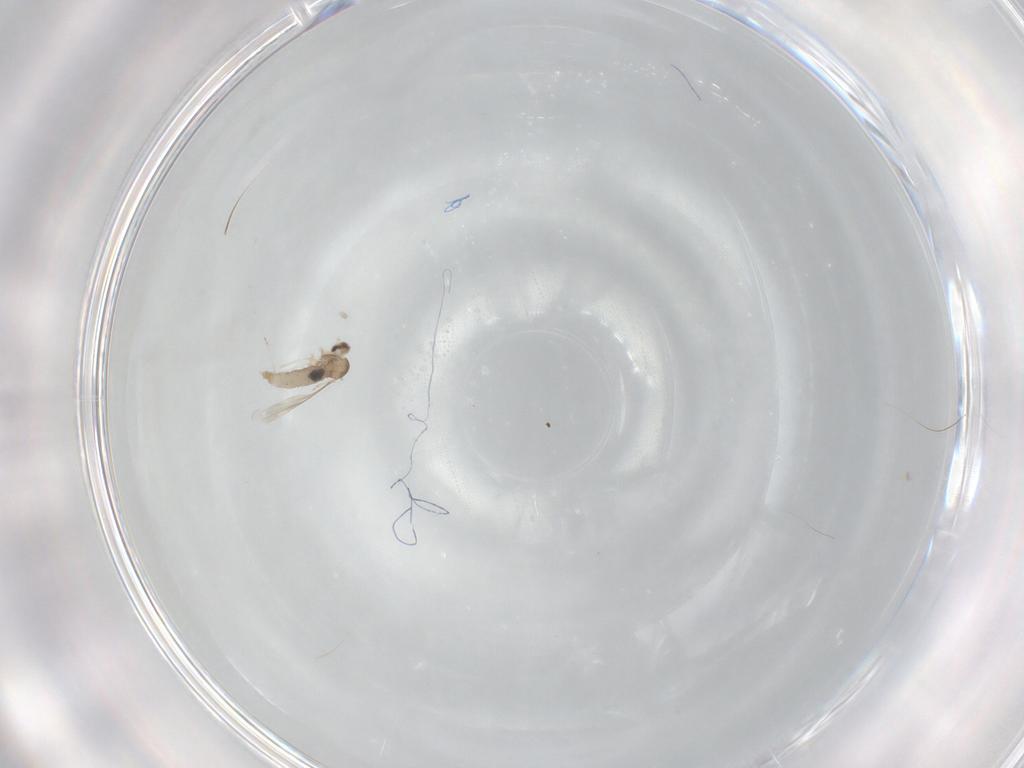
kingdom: Animalia
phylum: Arthropoda
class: Insecta
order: Diptera
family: Cecidomyiidae
